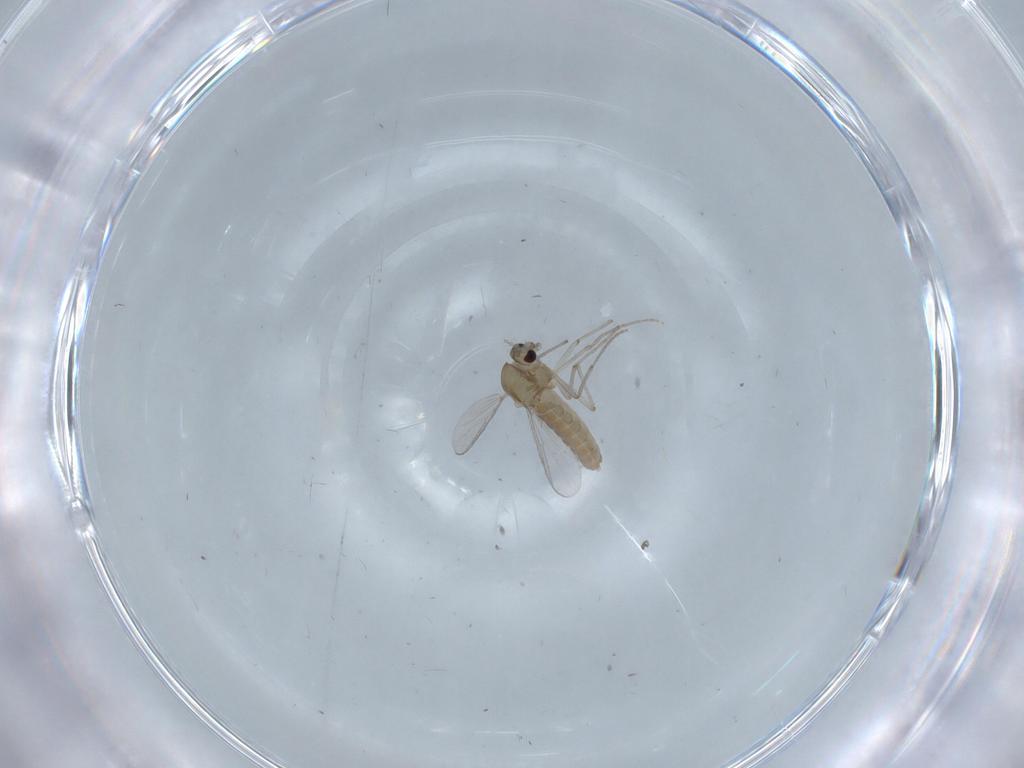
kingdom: Animalia
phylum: Arthropoda
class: Insecta
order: Diptera
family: Chironomidae
